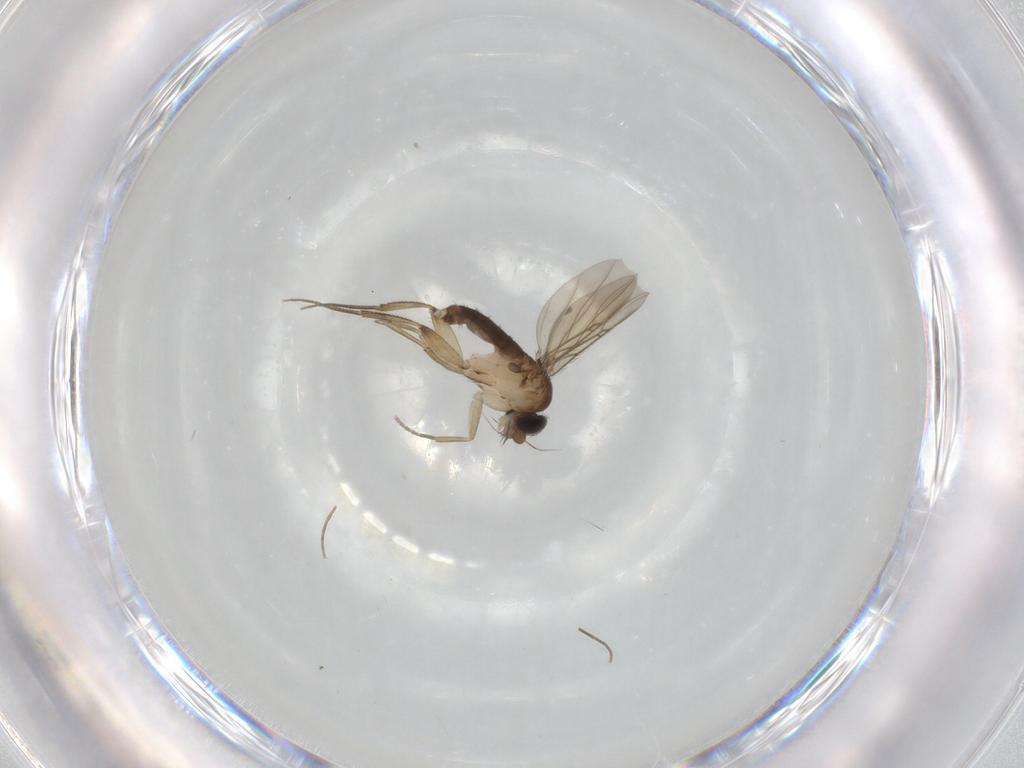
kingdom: Animalia
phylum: Arthropoda
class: Insecta
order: Diptera
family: Phoridae
